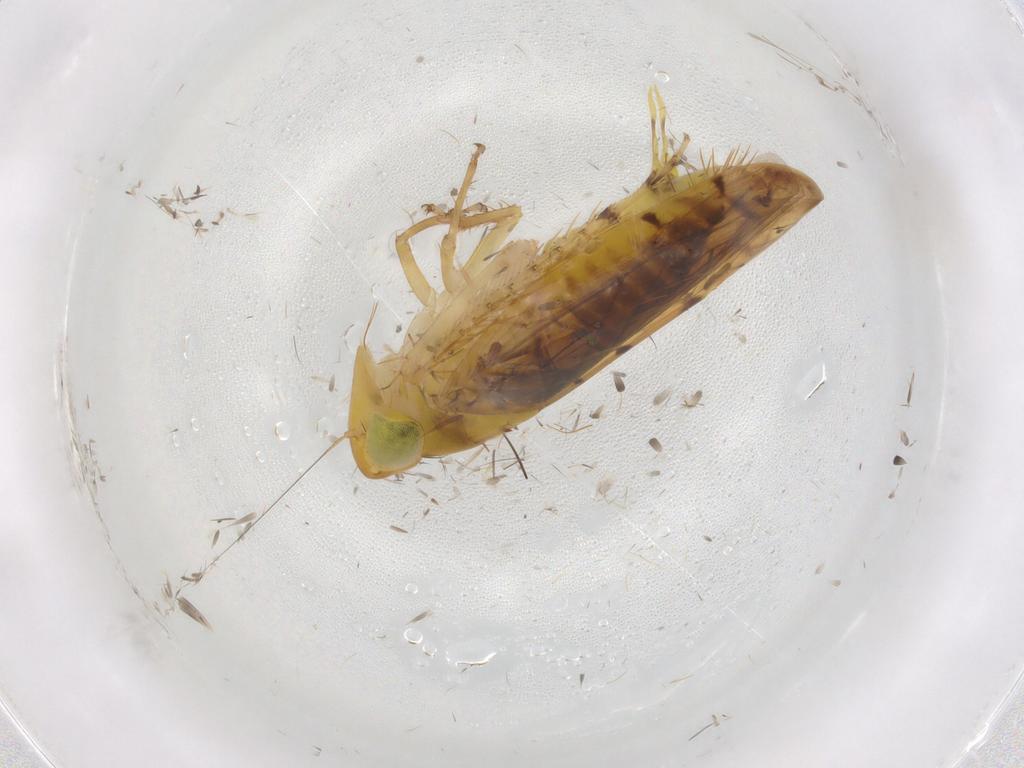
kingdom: Animalia
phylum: Arthropoda
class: Insecta
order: Hemiptera
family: Cicadellidae
